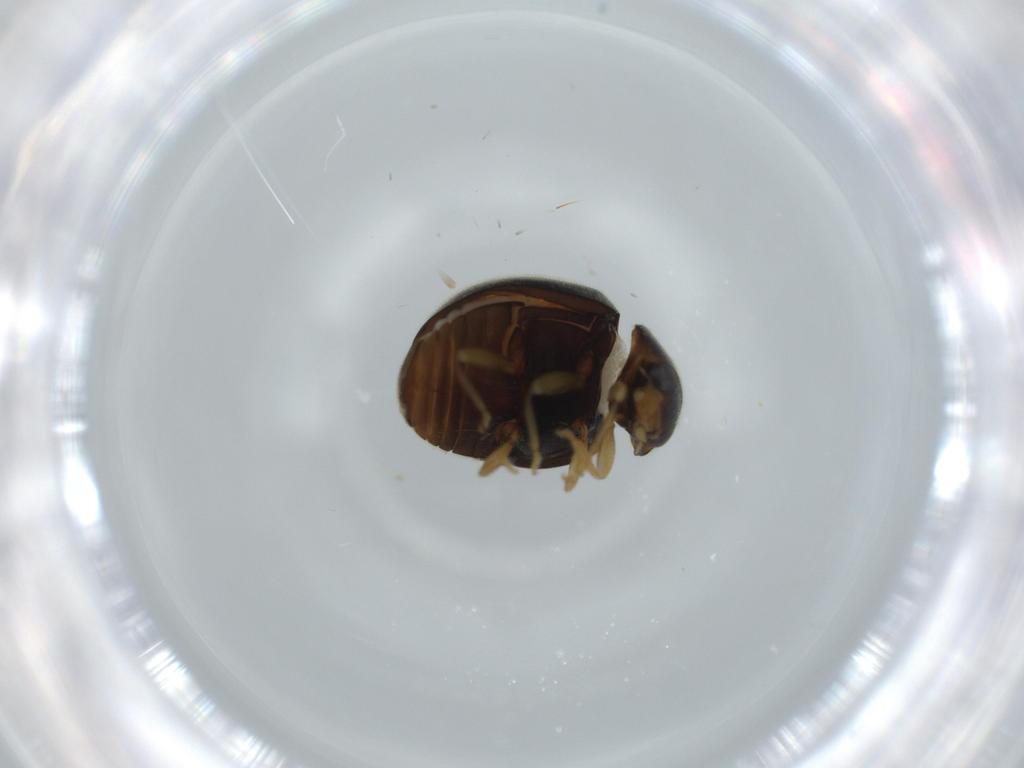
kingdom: Animalia
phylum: Arthropoda
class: Insecta
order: Coleoptera
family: Coccinellidae
